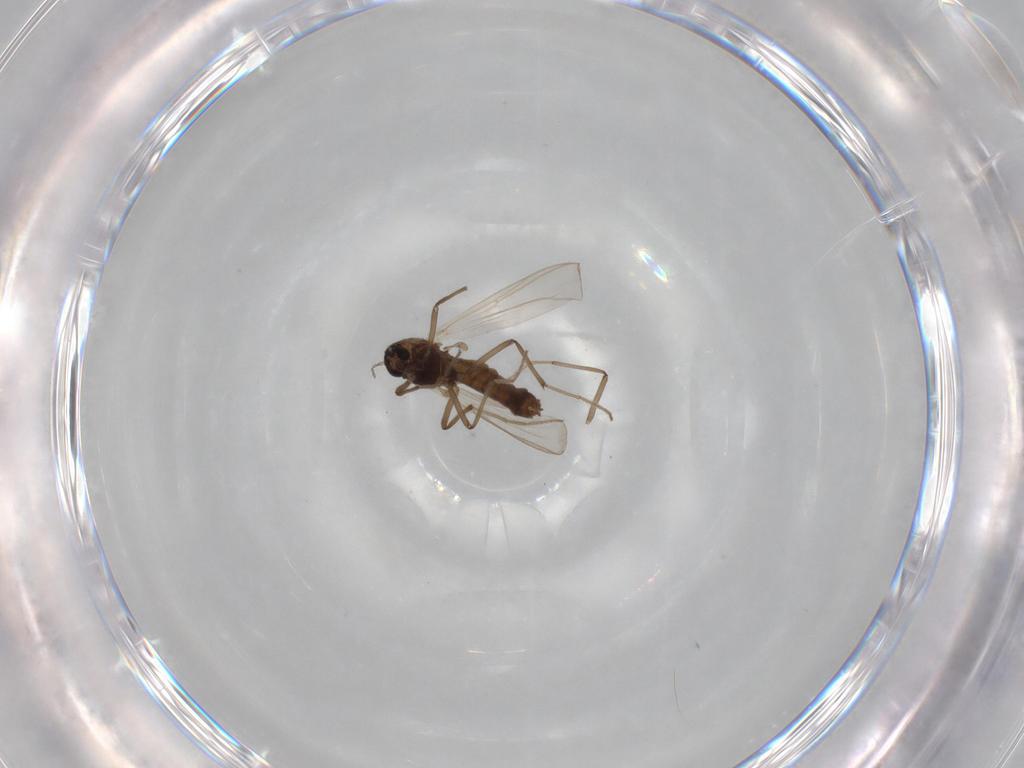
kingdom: Animalia
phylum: Arthropoda
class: Insecta
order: Diptera
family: Chironomidae
